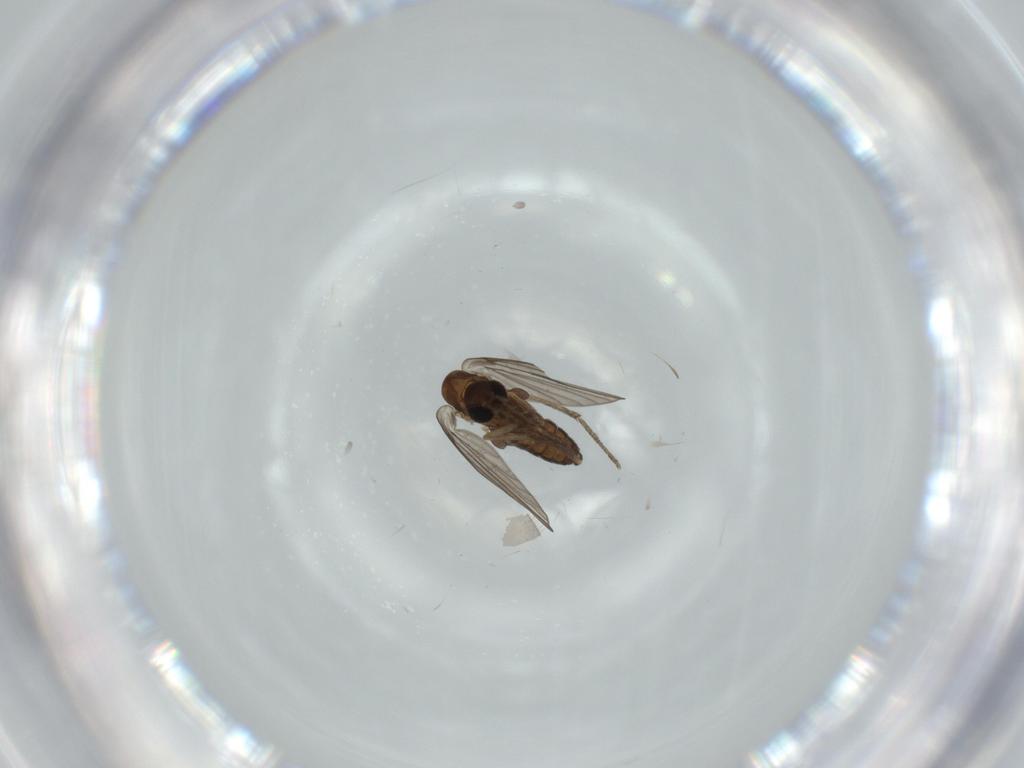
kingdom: Animalia
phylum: Arthropoda
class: Insecta
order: Diptera
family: Psychodidae
